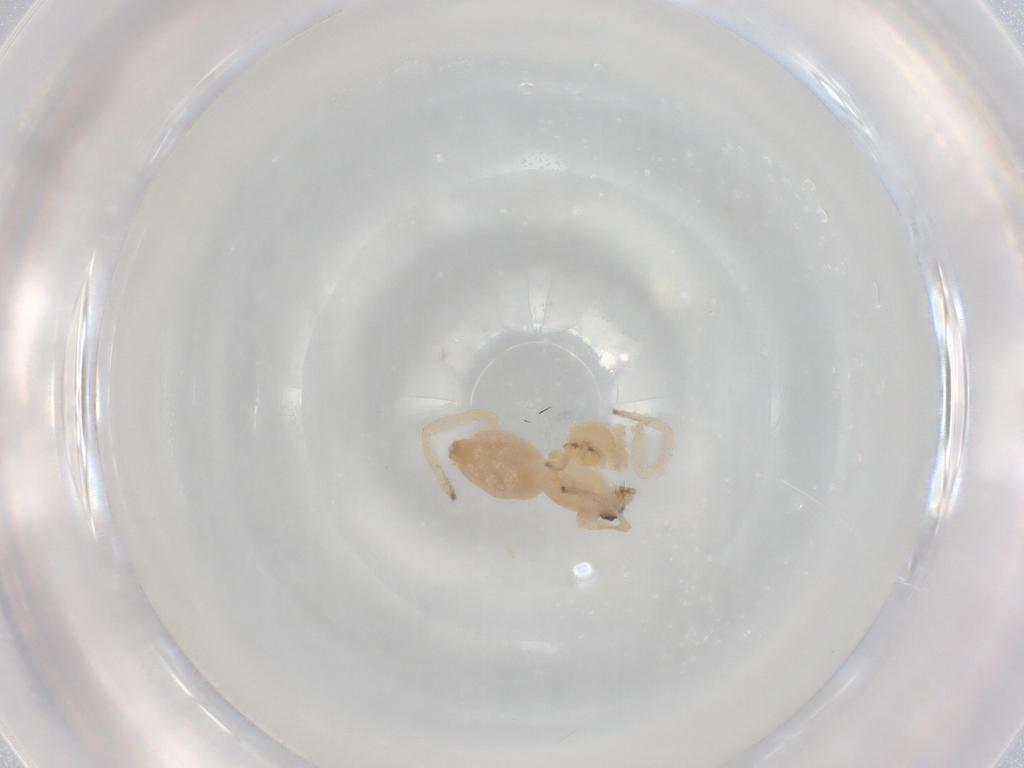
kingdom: Animalia
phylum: Arthropoda
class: Arachnida
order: Araneae
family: Cheiracanthiidae
